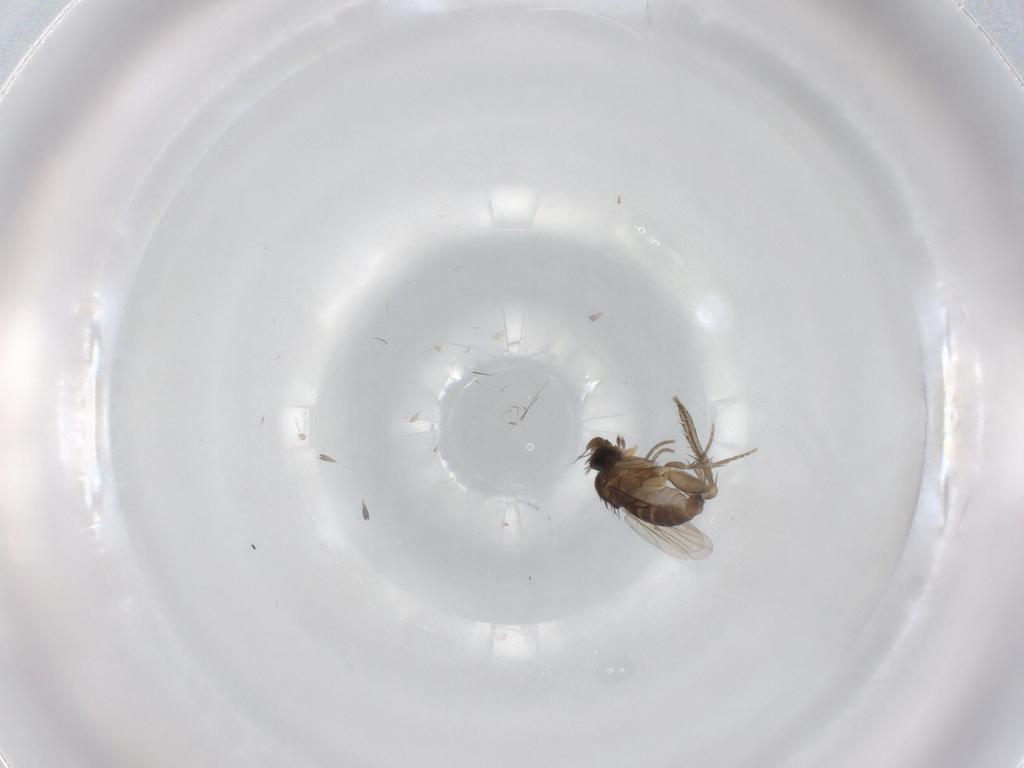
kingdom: Animalia
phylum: Arthropoda
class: Insecta
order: Diptera
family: Phoridae
